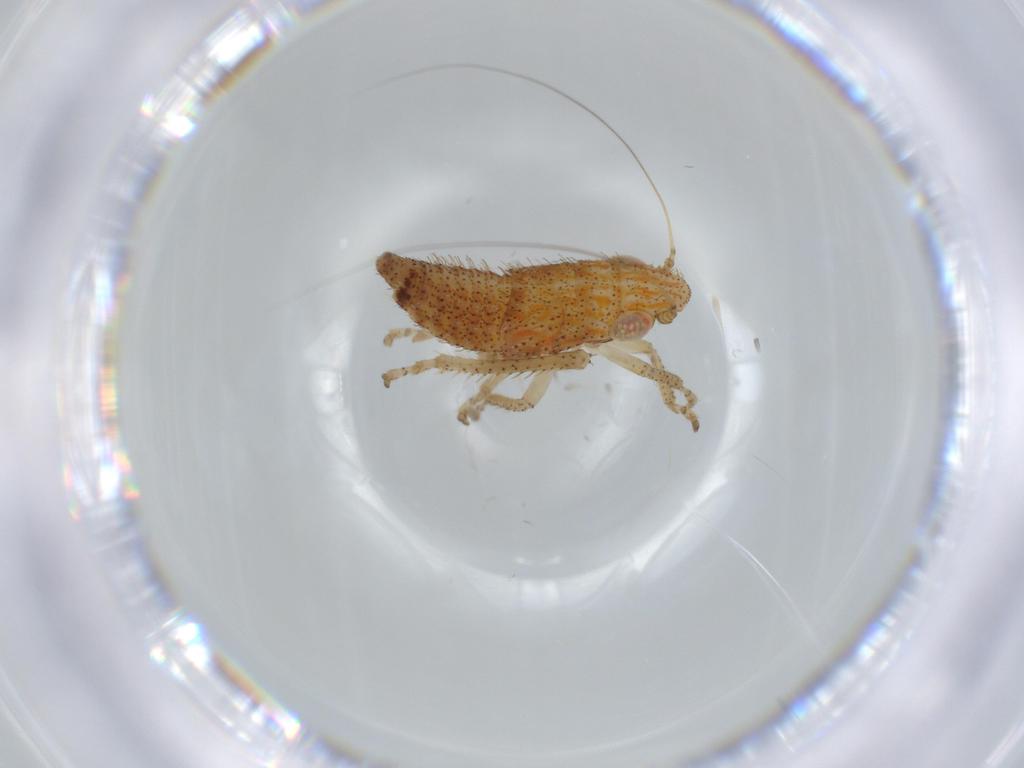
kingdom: Animalia
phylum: Arthropoda
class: Insecta
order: Hemiptera
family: Cicadellidae
